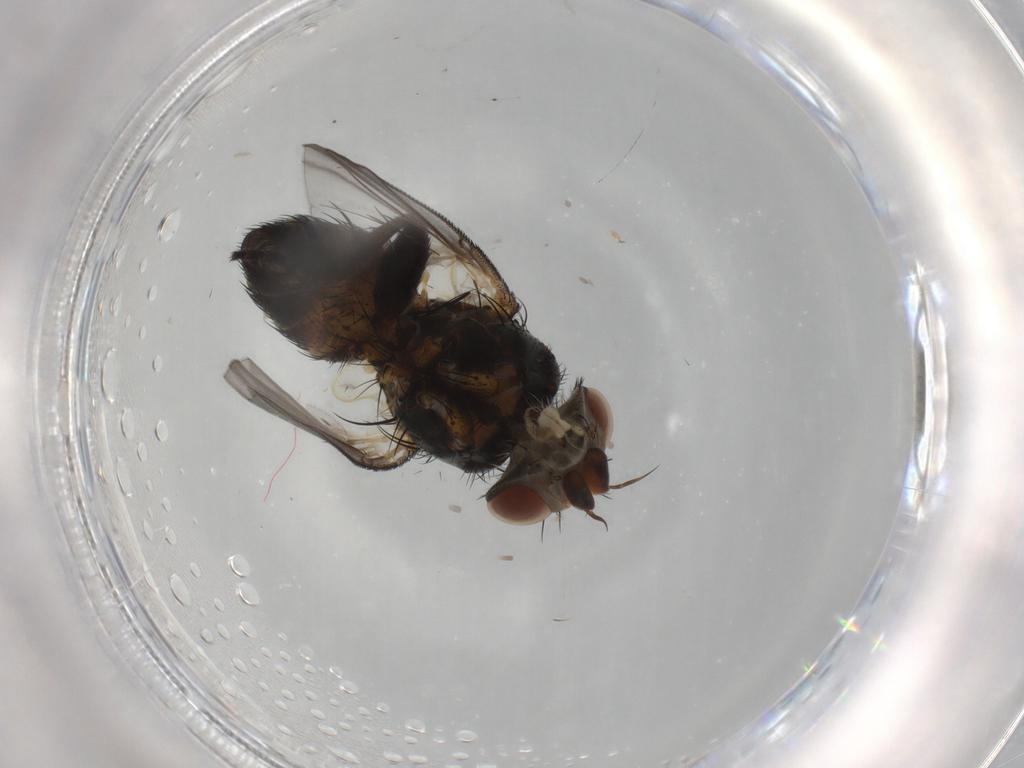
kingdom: Animalia
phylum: Arthropoda
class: Insecta
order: Diptera
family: Tachinidae
